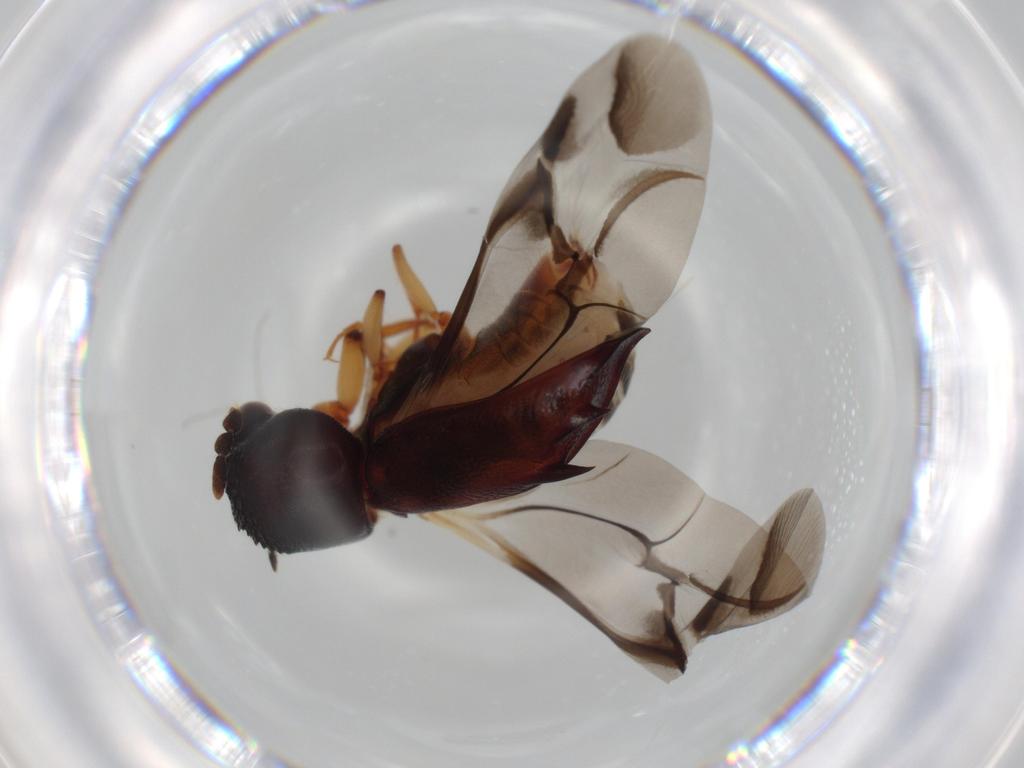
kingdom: Animalia
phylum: Arthropoda
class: Insecta
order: Coleoptera
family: Bostrichidae
